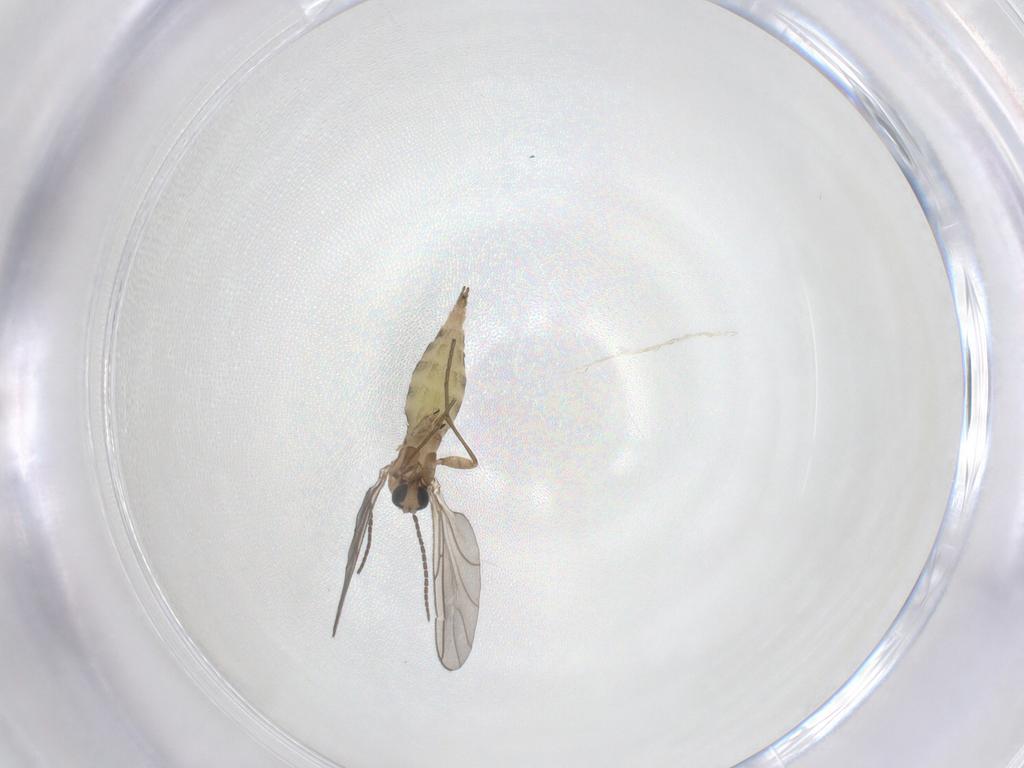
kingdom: Animalia
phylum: Arthropoda
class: Insecta
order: Diptera
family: Sciaridae
